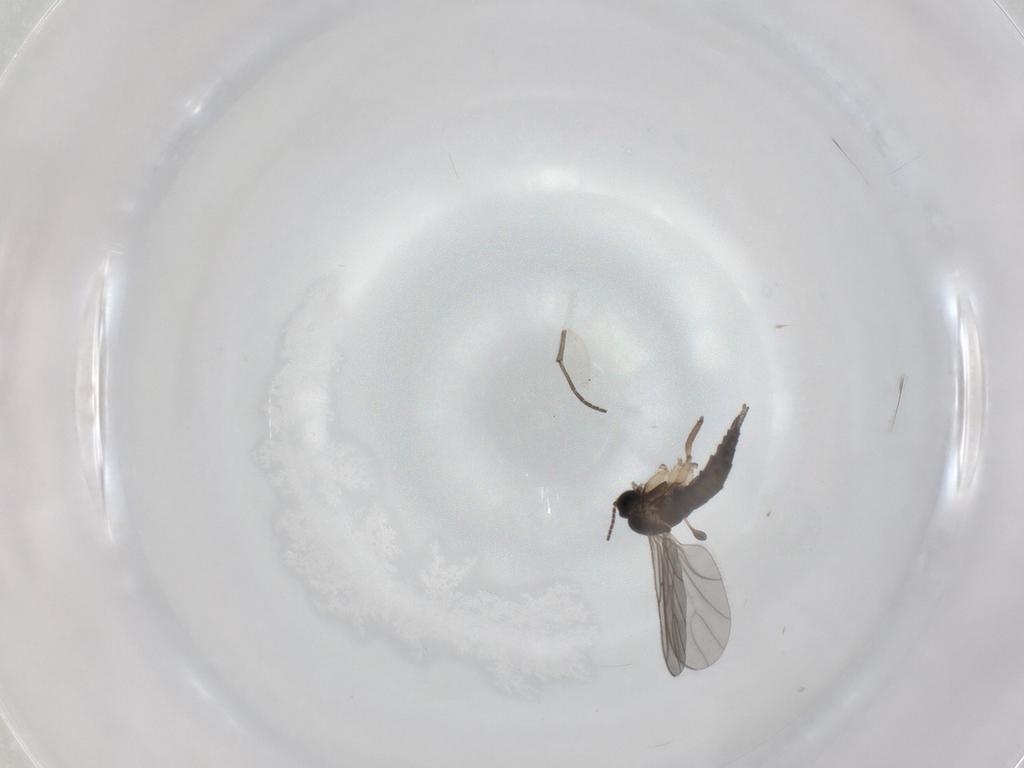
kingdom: Animalia
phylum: Arthropoda
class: Insecta
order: Diptera
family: Sciaridae
